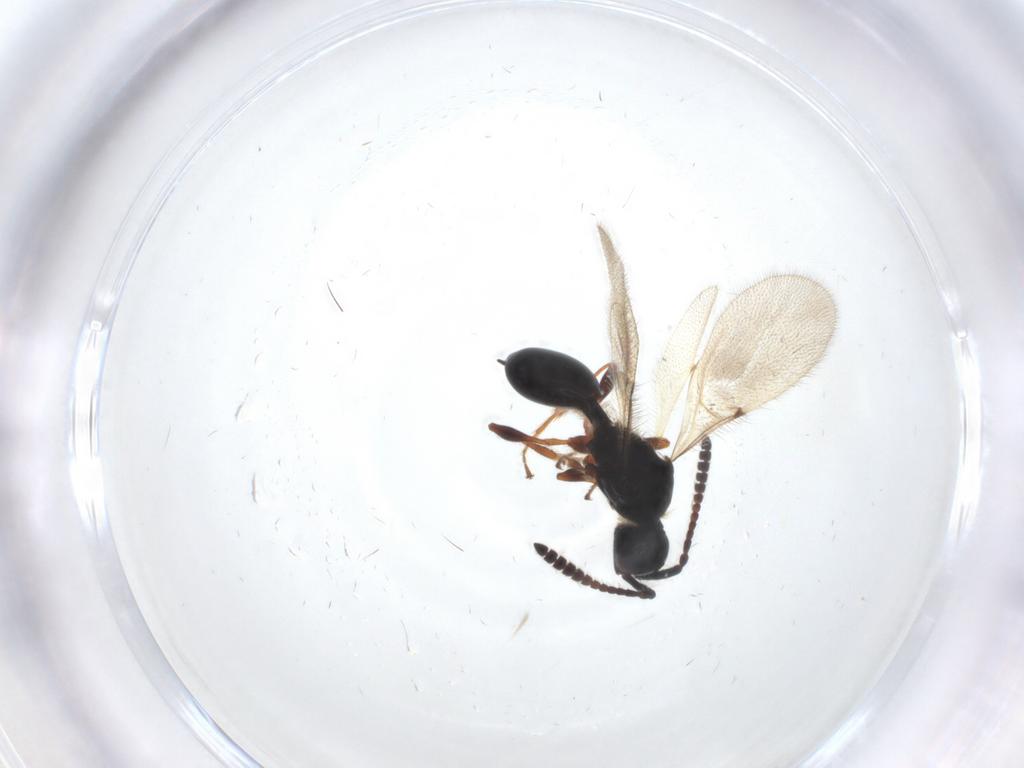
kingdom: Animalia
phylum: Arthropoda
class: Insecta
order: Hymenoptera
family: Diapriidae
